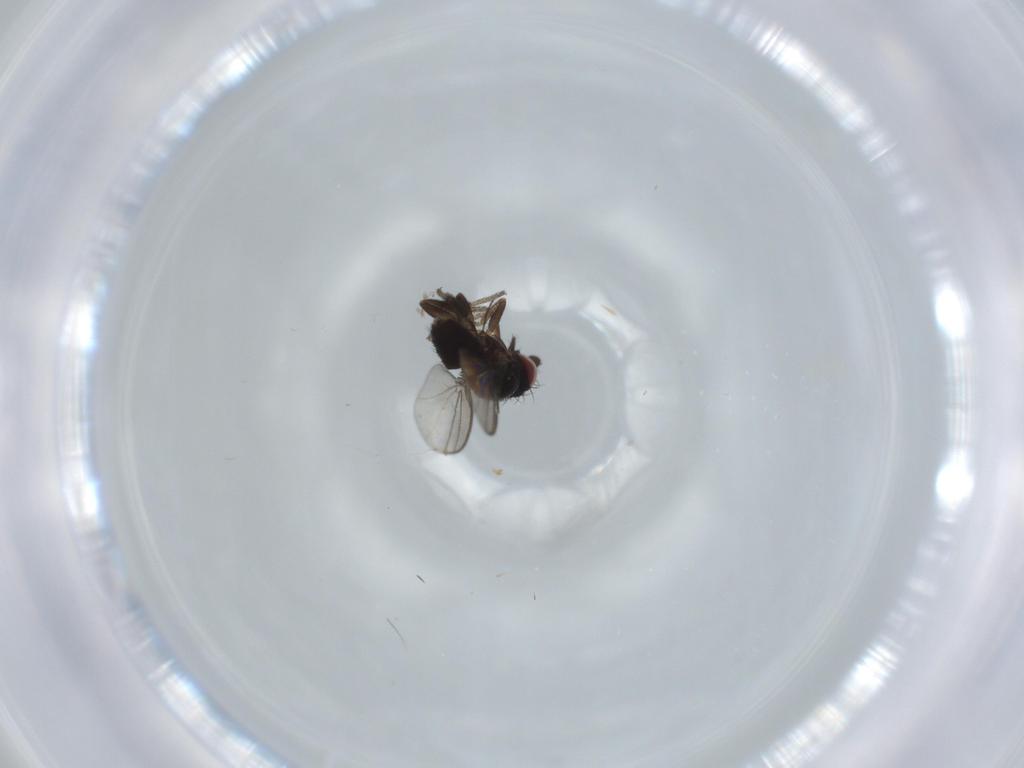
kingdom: Animalia
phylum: Arthropoda
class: Insecta
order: Diptera
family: Milichiidae
